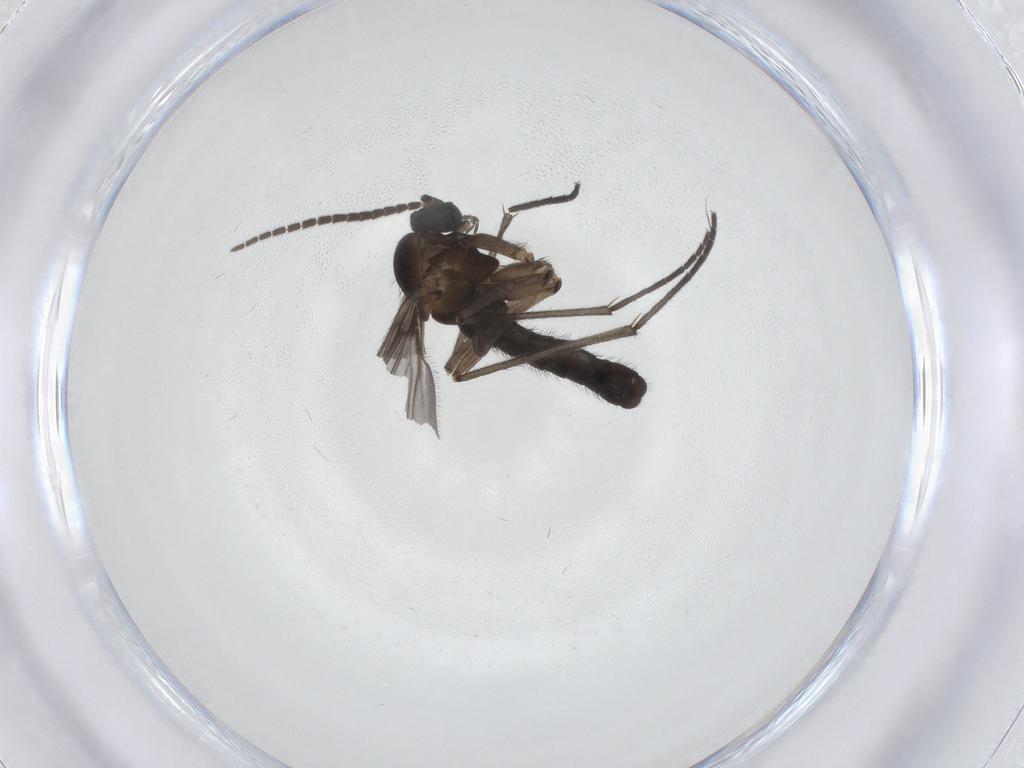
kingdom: Animalia
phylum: Arthropoda
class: Insecta
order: Diptera
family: Sciaridae
